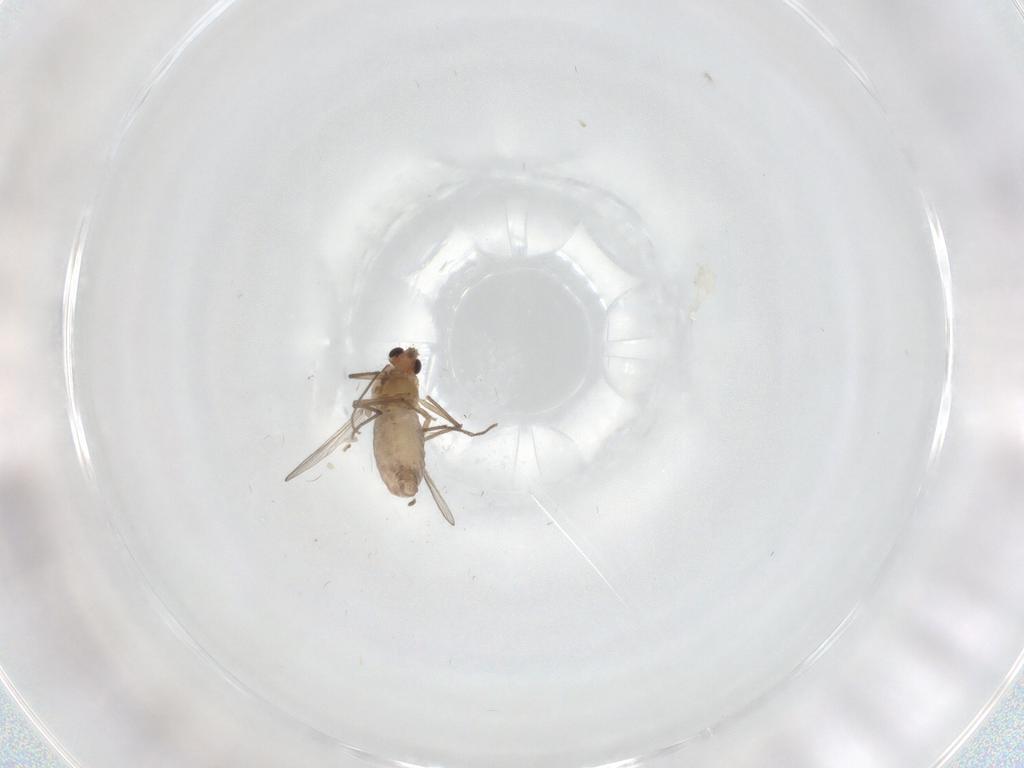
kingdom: Animalia
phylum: Arthropoda
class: Insecta
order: Diptera
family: Chironomidae
